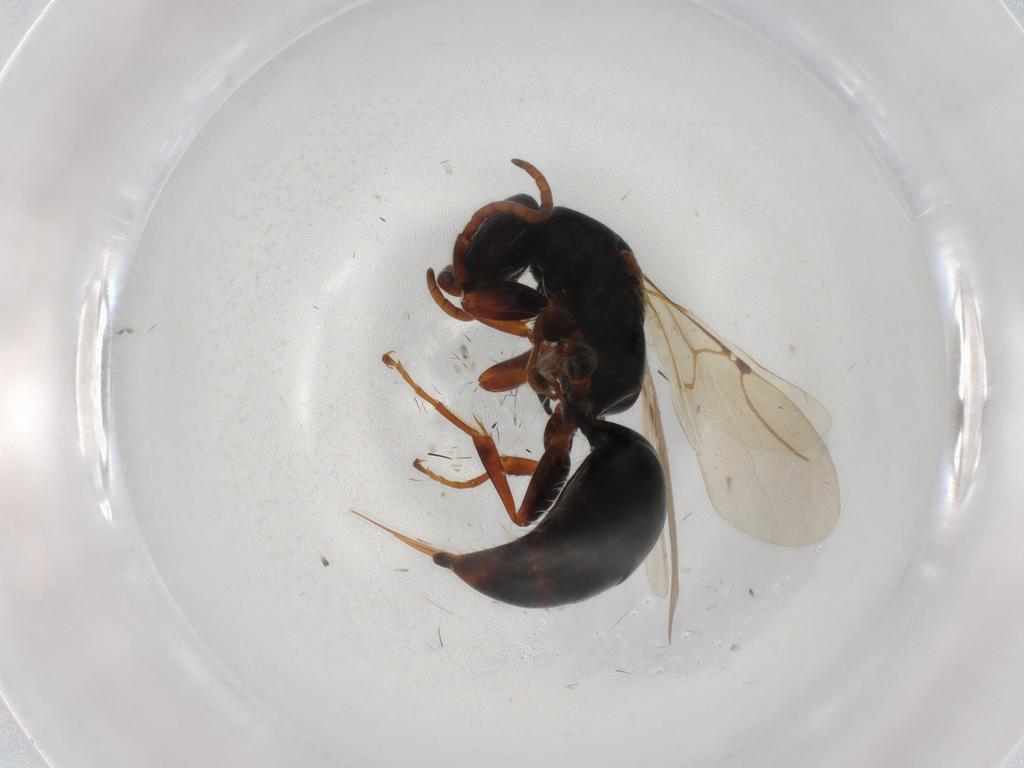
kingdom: Animalia
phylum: Arthropoda
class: Insecta
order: Hymenoptera
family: Bethylidae
